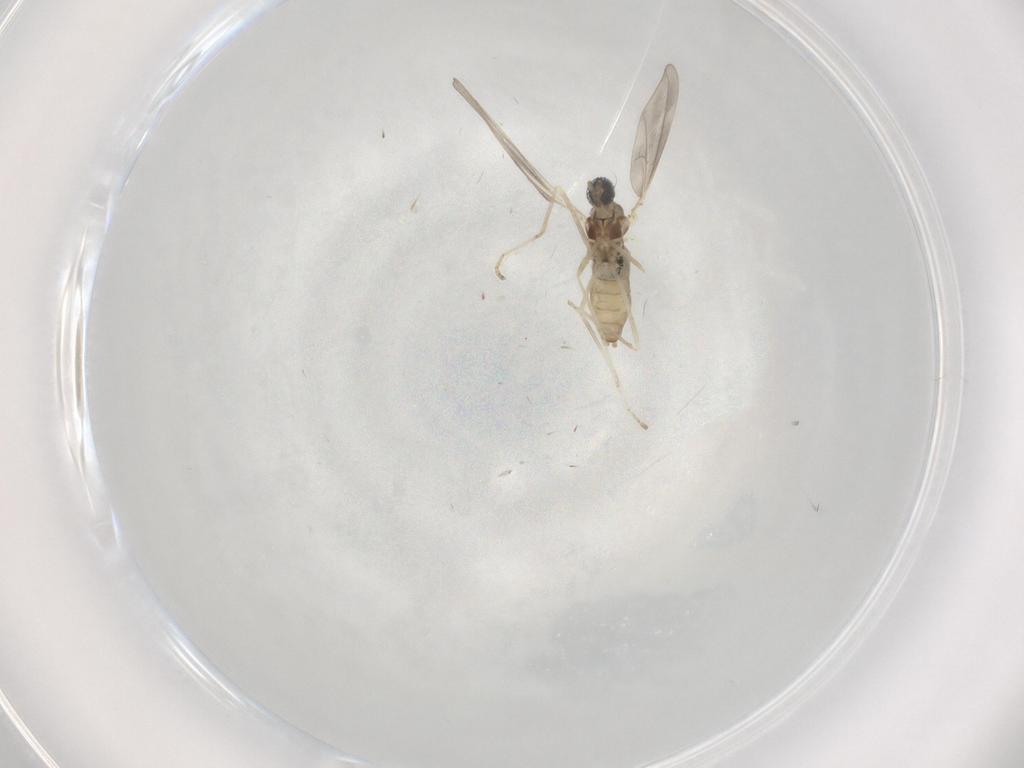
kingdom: Animalia
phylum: Arthropoda
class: Insecta
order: Diptera
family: Cecidomyiidae
